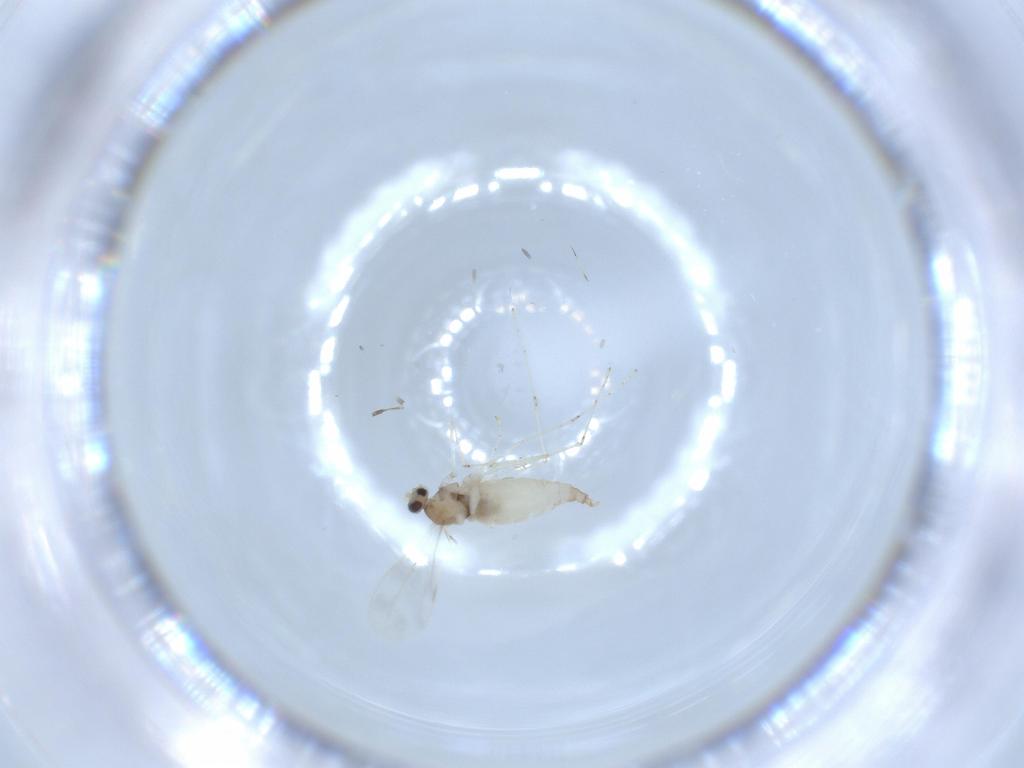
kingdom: Animalia
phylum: Arthropoda
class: Insecta
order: Diptera
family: Cecidomyiidae
